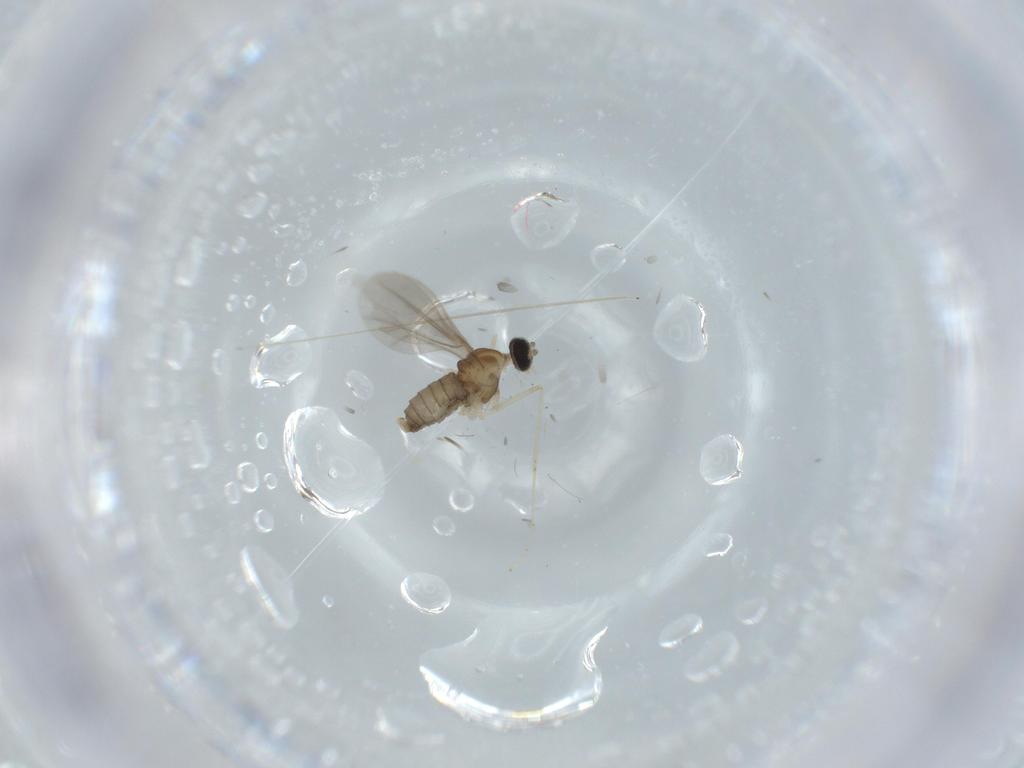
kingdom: Animalia
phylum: Arthropoda
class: Insecta
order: Diptera
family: Cecidomyiidae
